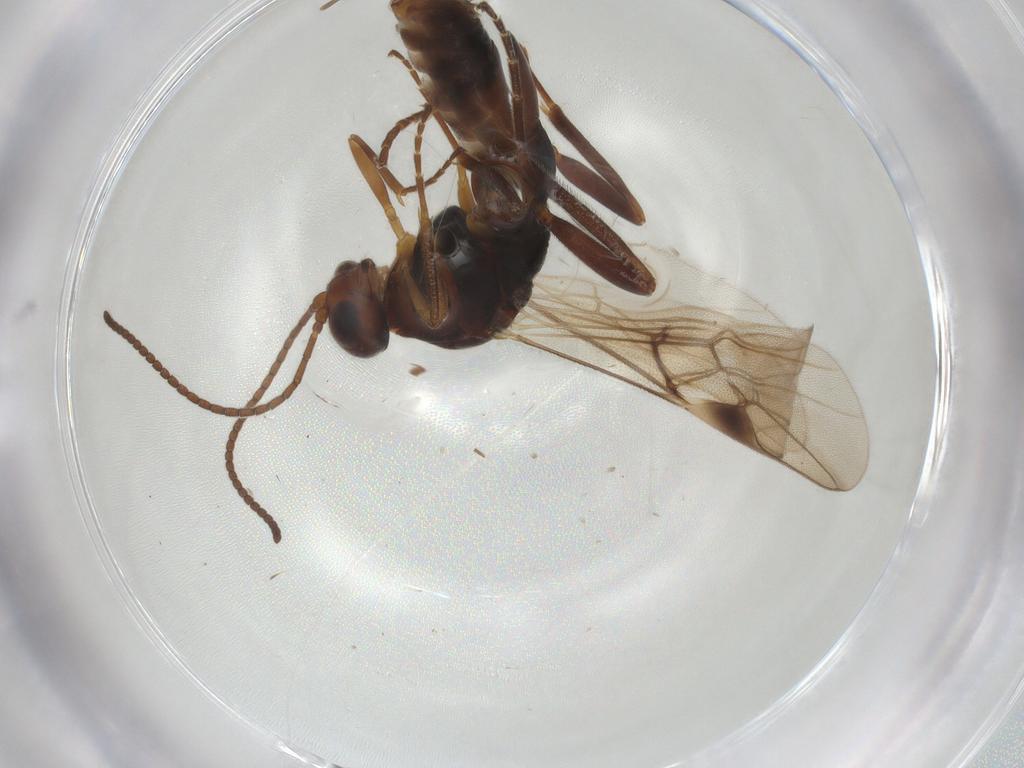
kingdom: Animalia
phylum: Arthropoda
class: Insecta
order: Hymenoptera
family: Braconidae
